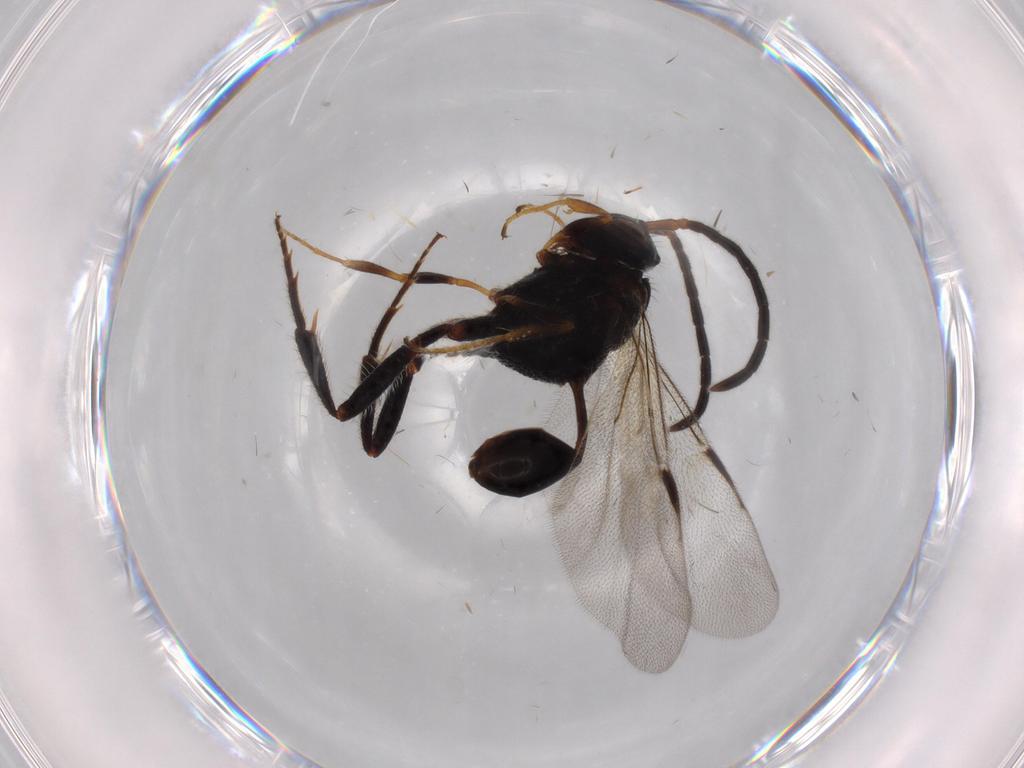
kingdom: Animalia
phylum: Arthropoda
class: Insecta
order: Hymenoptera
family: Evaniidae
